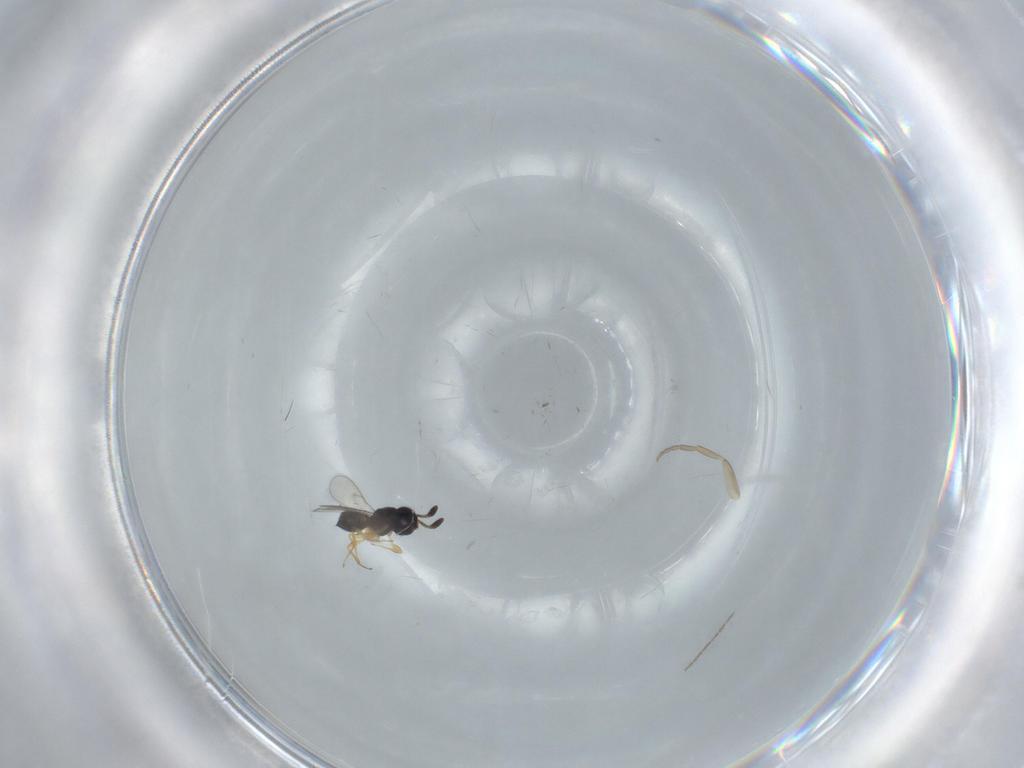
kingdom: Animalia
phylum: Arthropoda
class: Insecta
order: Hymenoptera
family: Scelionidae
